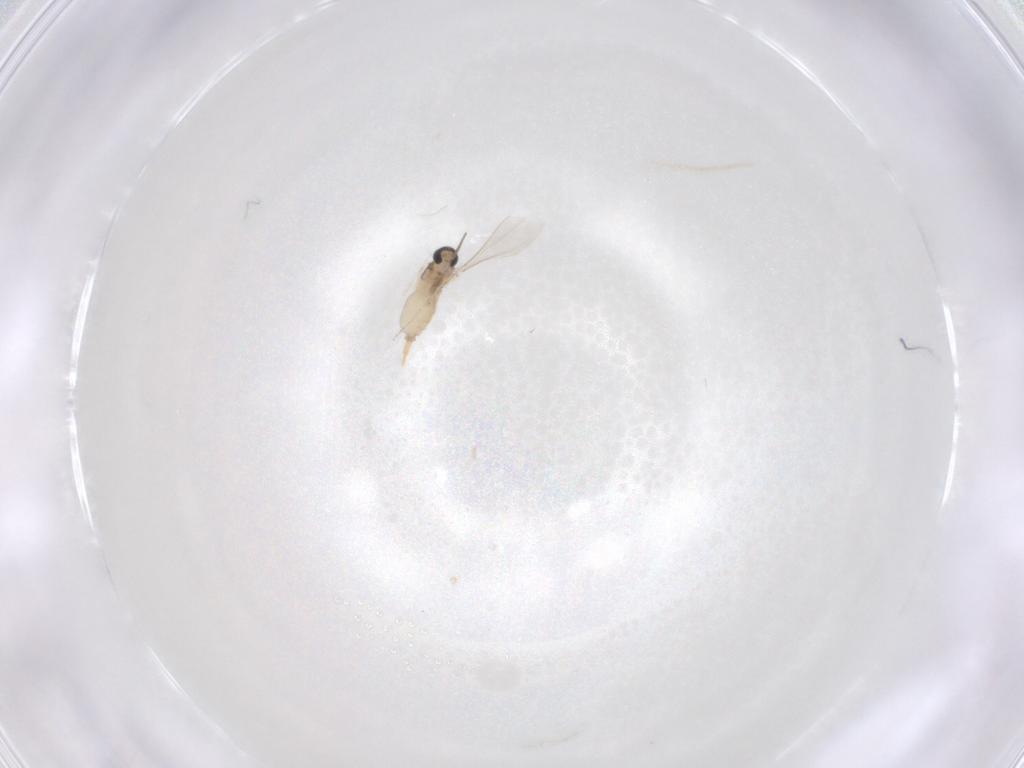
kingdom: Animalia
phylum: Arthropoda
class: Insecta
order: Diptera
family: Cecidomyiidae
